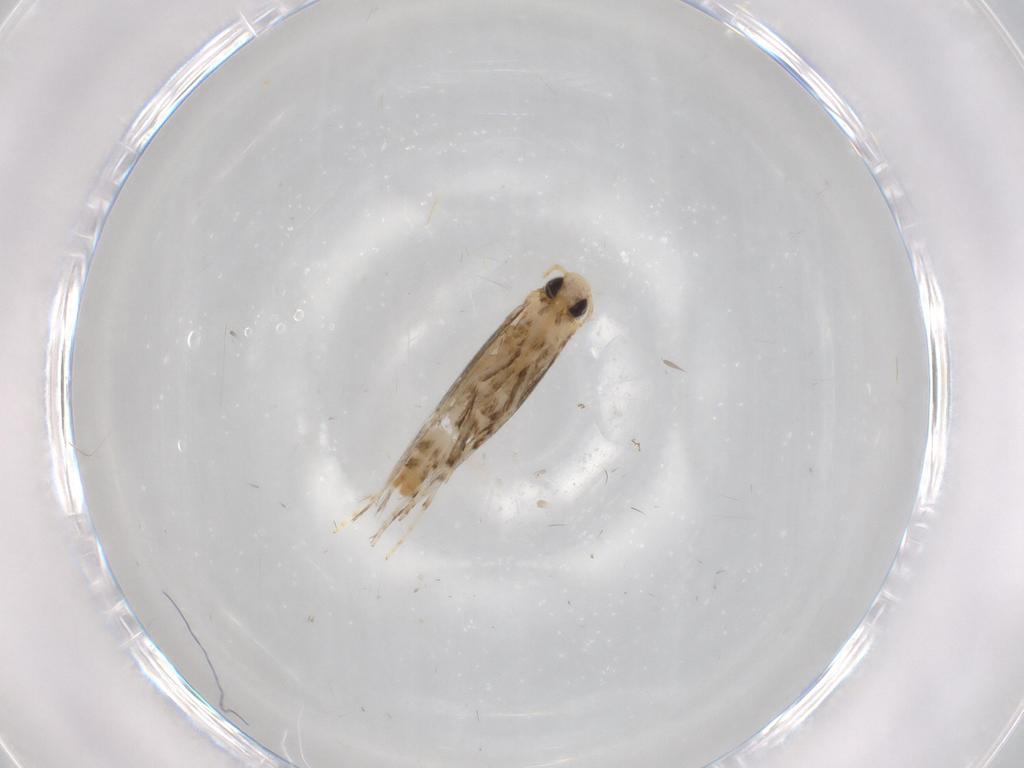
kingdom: Animalia
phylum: Arthropoda
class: Insecta
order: Lepidoptera
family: Gracillariidae
